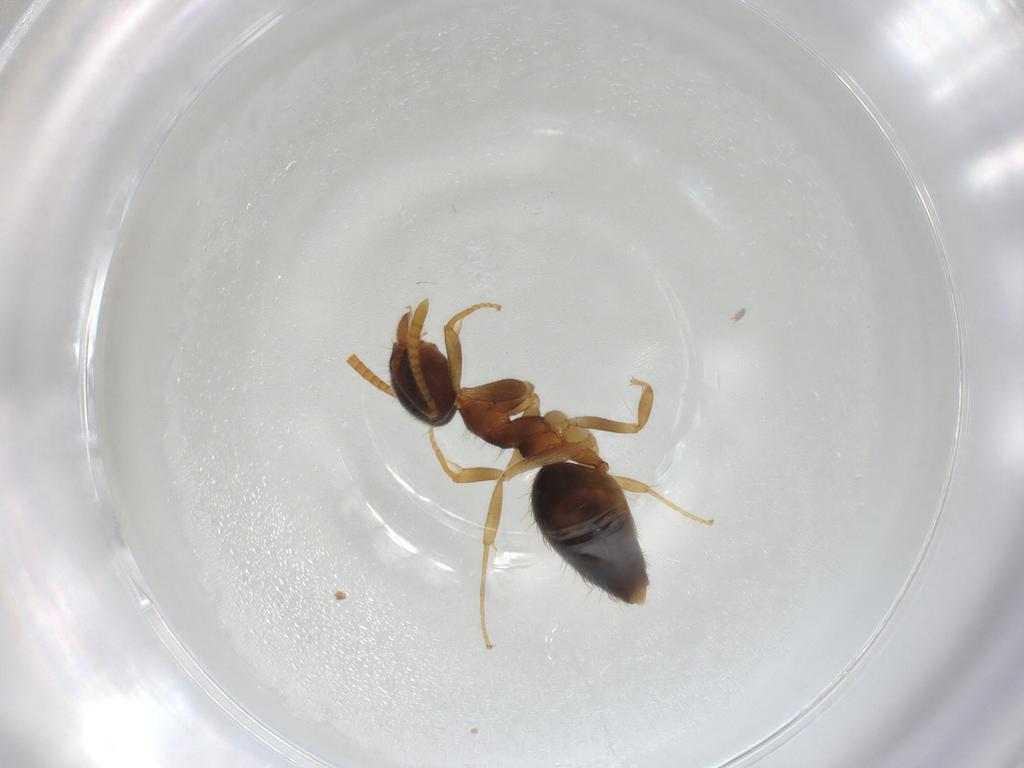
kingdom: Animalia
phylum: Arthropoda
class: Insecta
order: Hymenoptera
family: Formicidae
